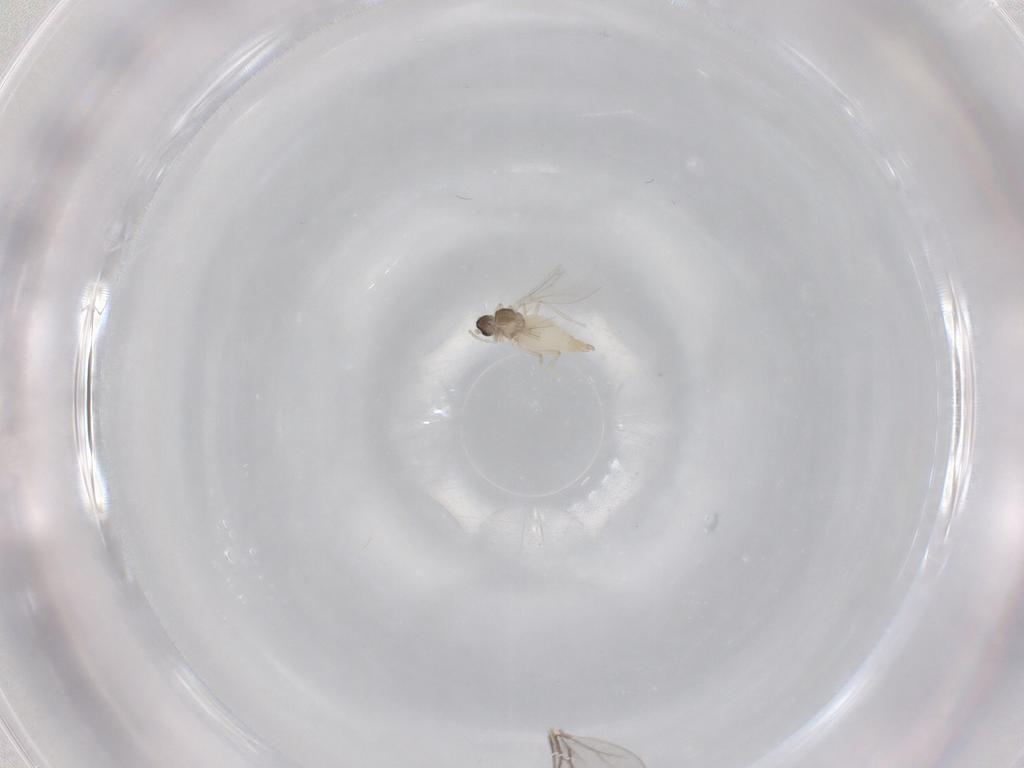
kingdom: Animalia
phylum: Arthropoda
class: Insecta
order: Diptera
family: Cecidomyiidae
